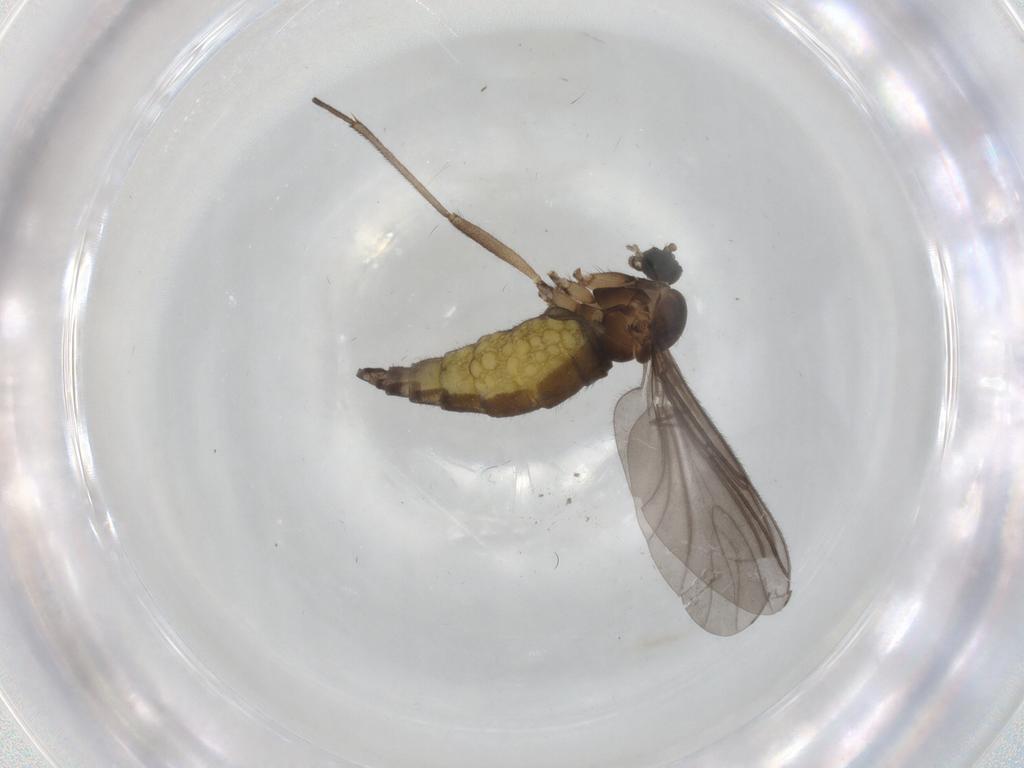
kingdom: Animalia
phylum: Arthropoda
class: Insecta
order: Diptera
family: Sciaridae
